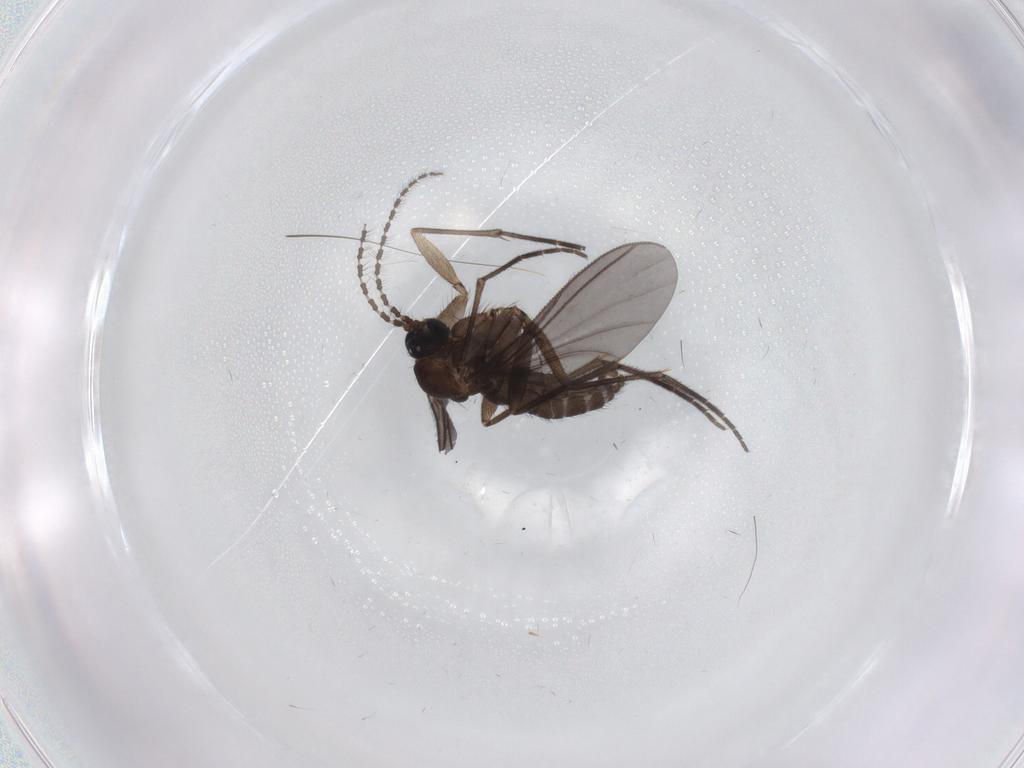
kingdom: Animalia
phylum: Arthropoda
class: Insecta
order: Diptera
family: Sciaridae
